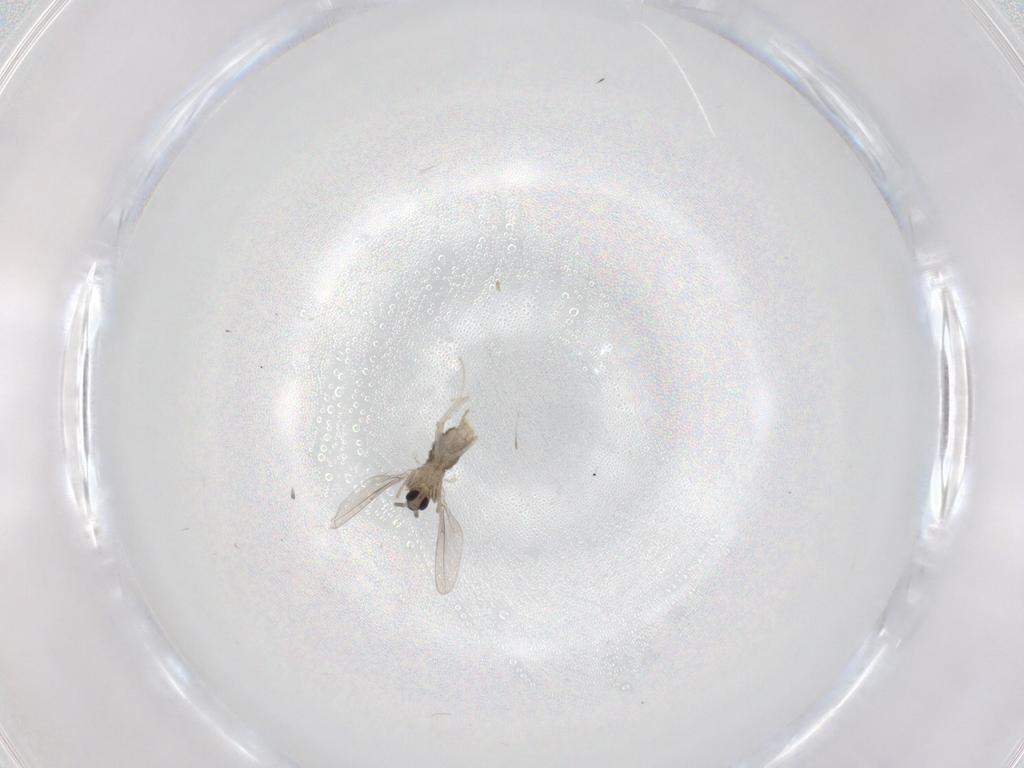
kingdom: Animalia
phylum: Arthropoda
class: Insecta
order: Diptera
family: Cecidomyiidae
